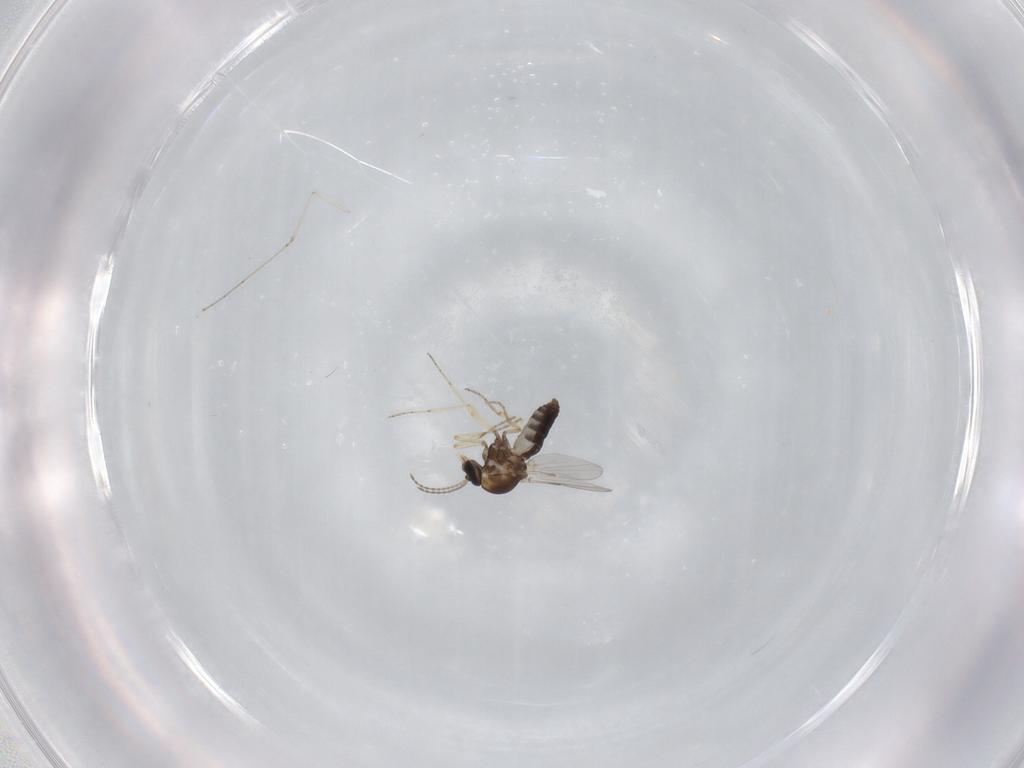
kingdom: Animalia
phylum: Arthropoda
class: Insecta
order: Diptera
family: Ceratopogonidae
